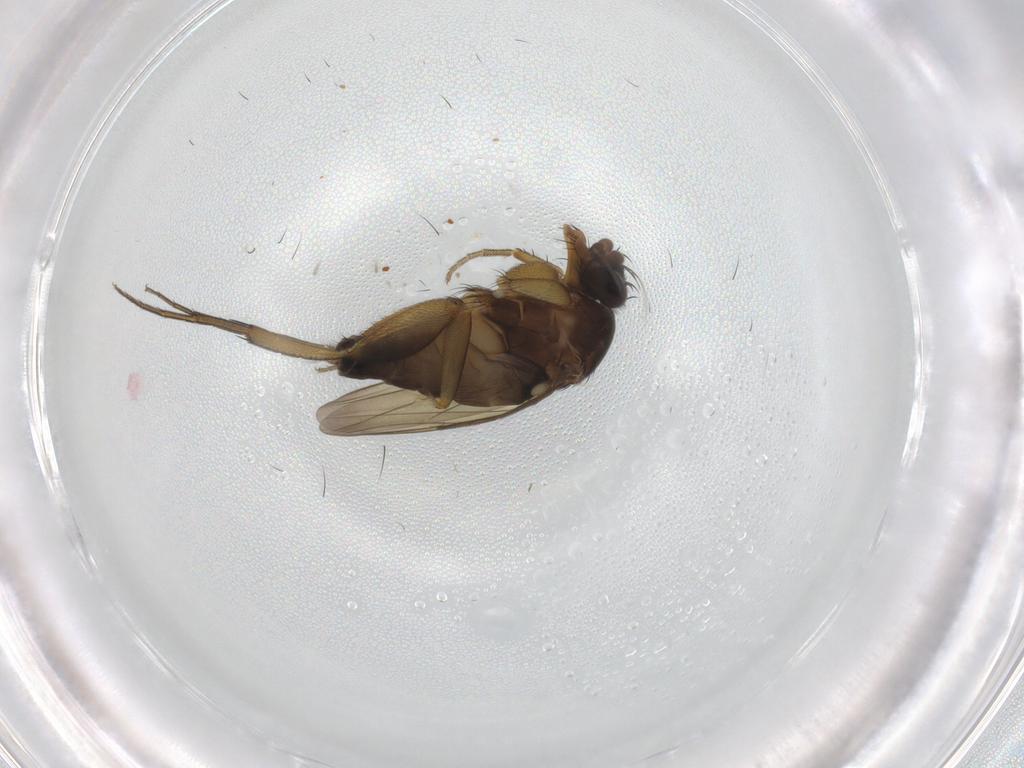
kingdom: Animalia
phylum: Arthropoda
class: Insecta
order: Diptera
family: Phoridae
